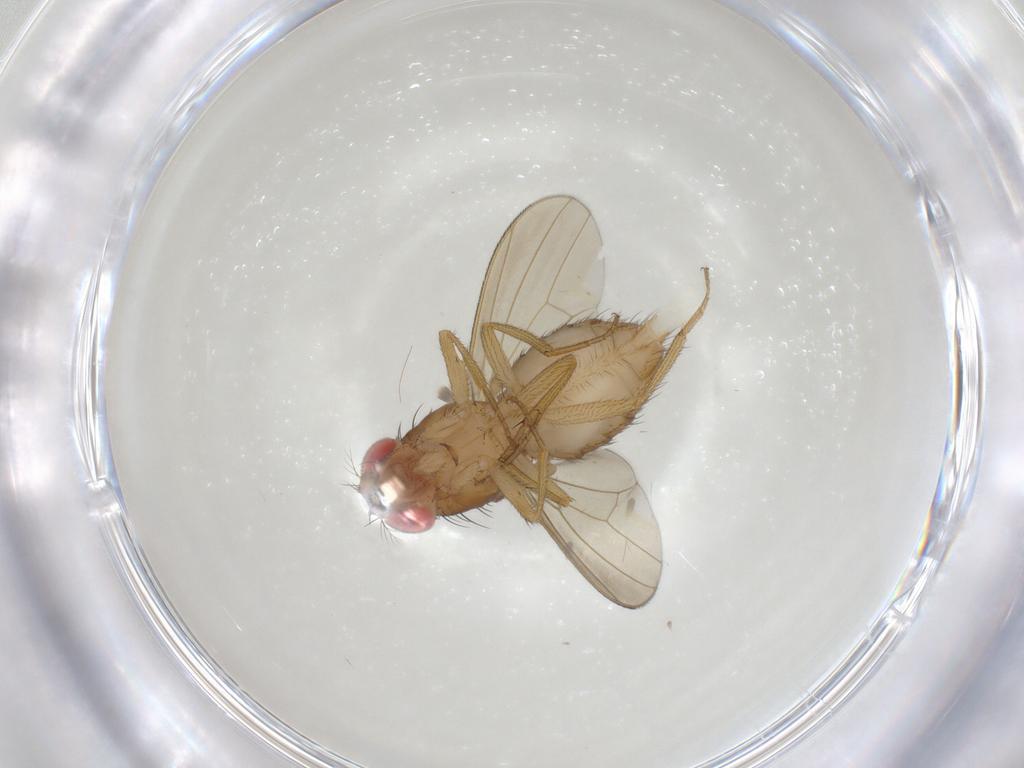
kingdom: Animalia
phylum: Arthropoda
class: Insecta
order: Diptera
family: Drosophilidae
